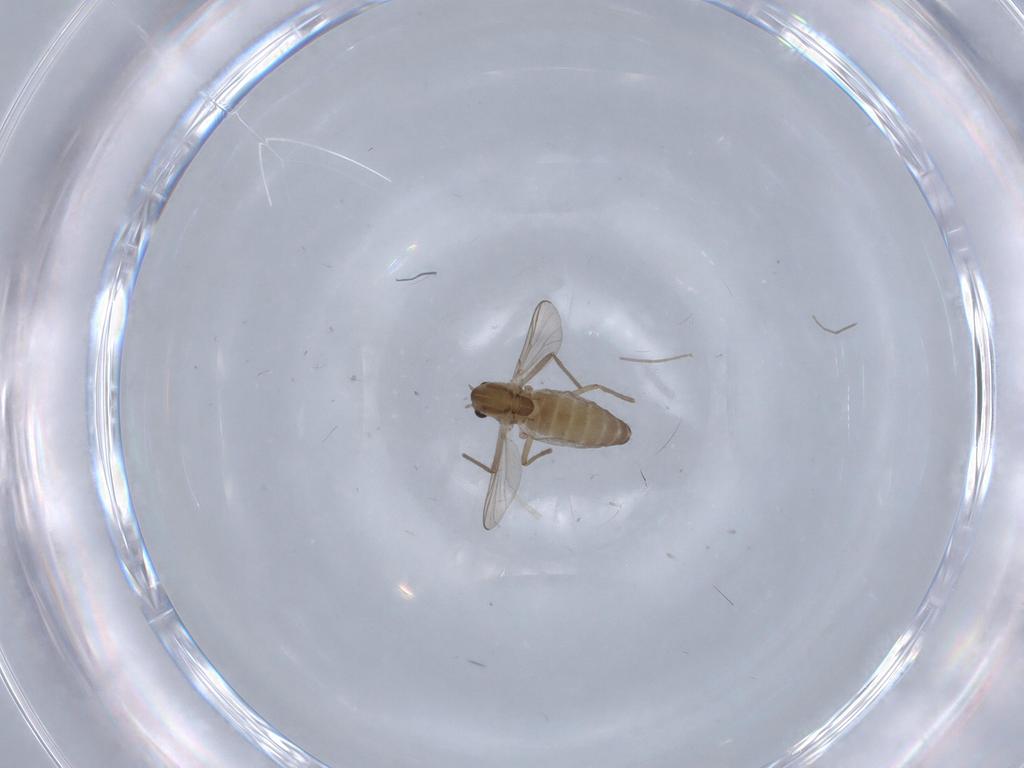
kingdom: Animalia
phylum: Arthropoda
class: Insecta
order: Diptera
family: Chironomidae
